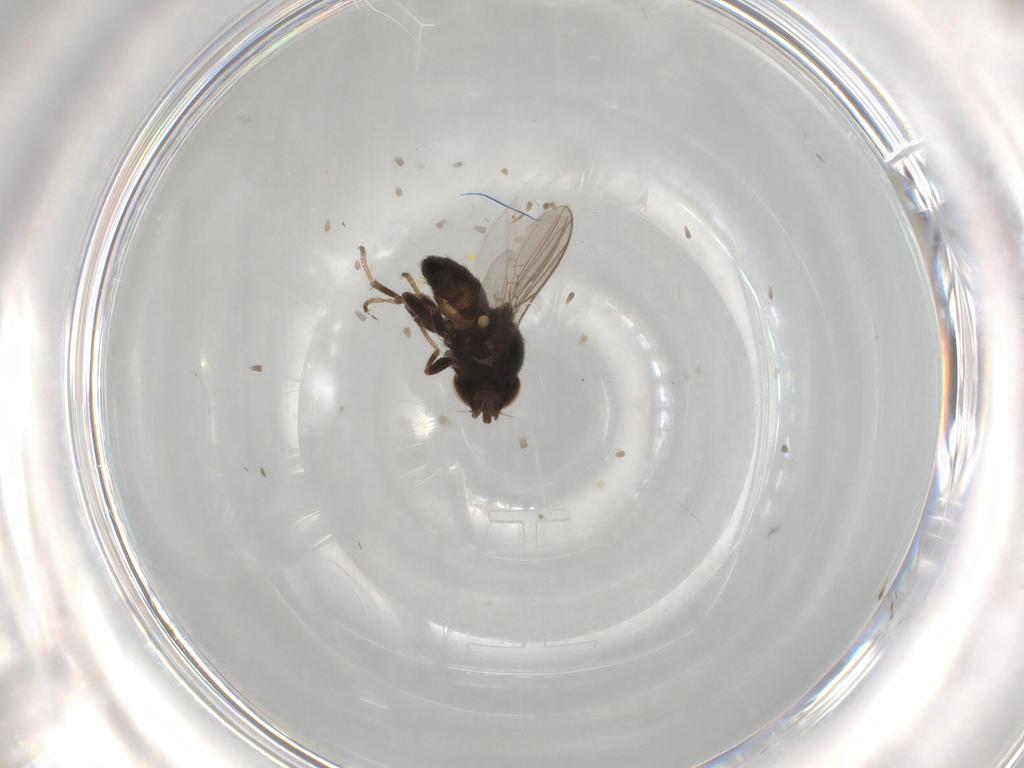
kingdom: Animalia
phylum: Arthropoda
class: Insecta
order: Diptera
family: Chloropidae
